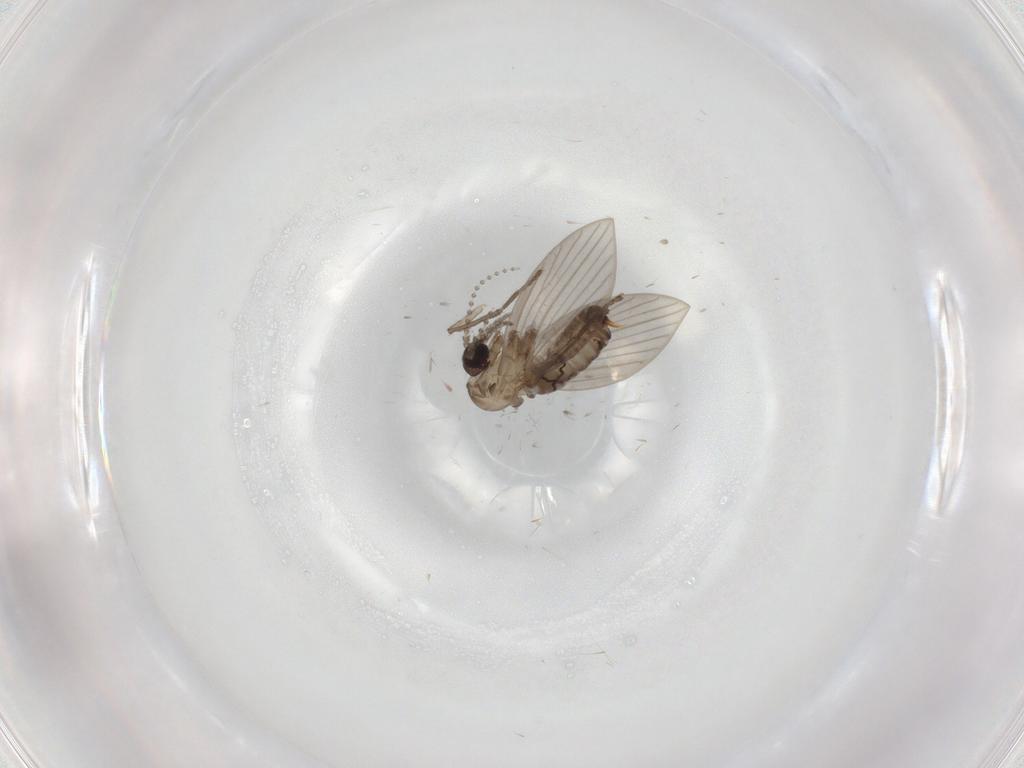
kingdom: Animalia
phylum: Arthropoda
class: Insecta
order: Diptera
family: Psychodidae
